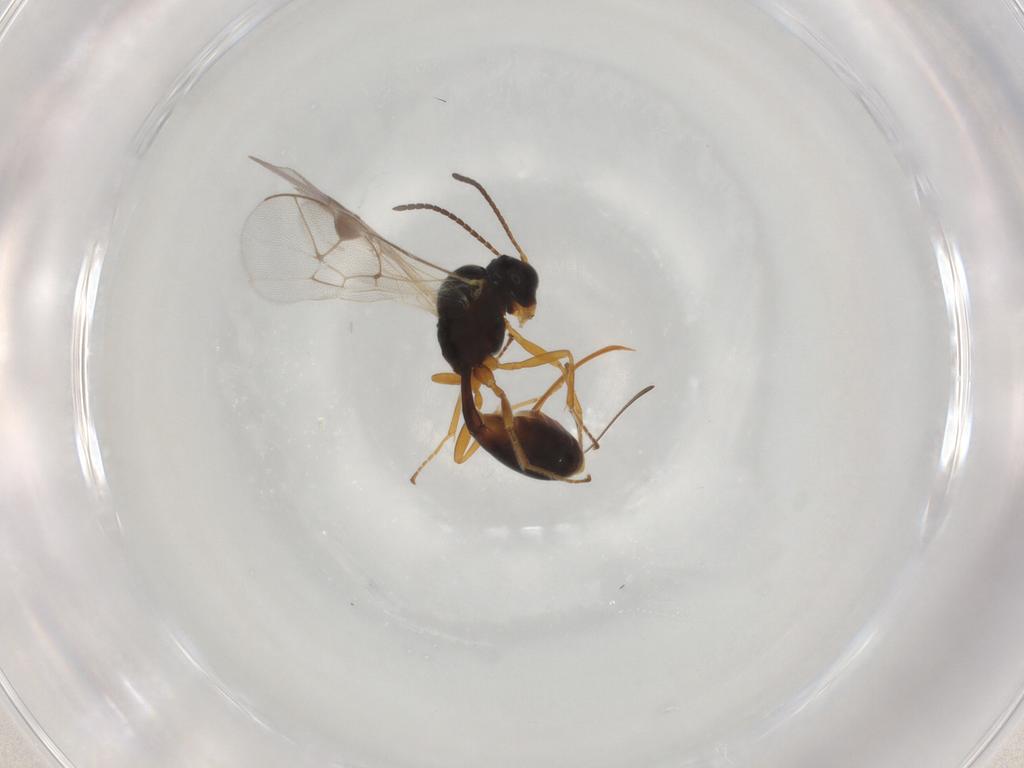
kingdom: Animalia
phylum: Arthropoda
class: Insecta
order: Hymenoptera
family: Ichneumonidae
